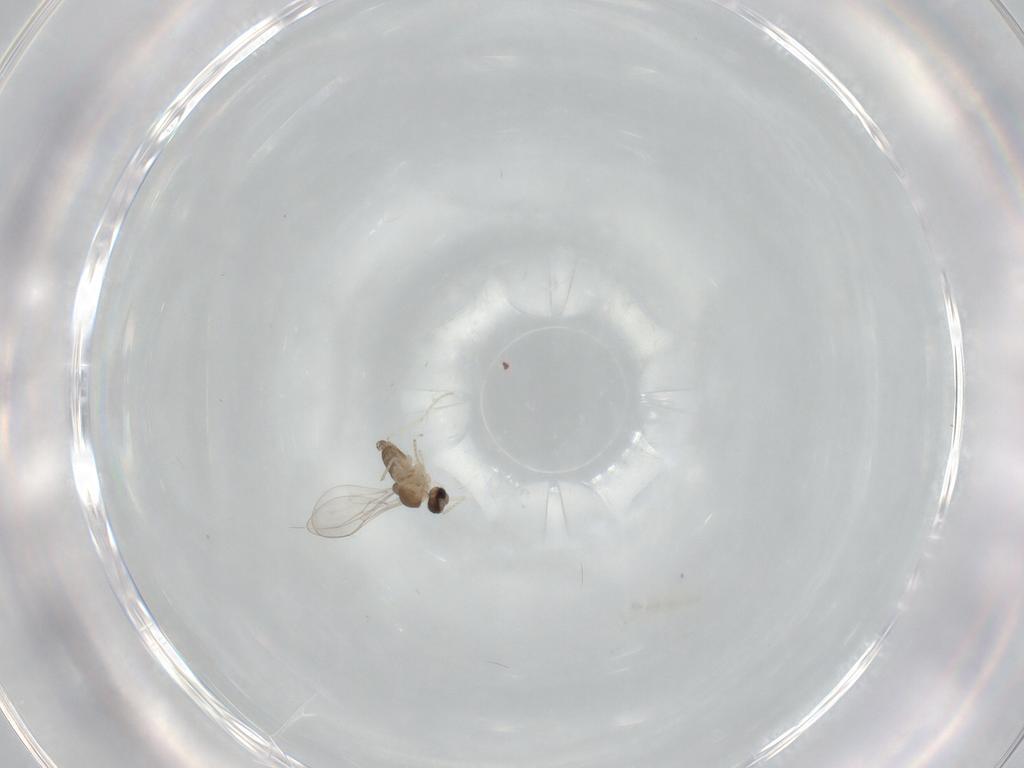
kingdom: Animalia
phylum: Arthropoda
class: Insecta
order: Diptera
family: Cecidomyiidae
